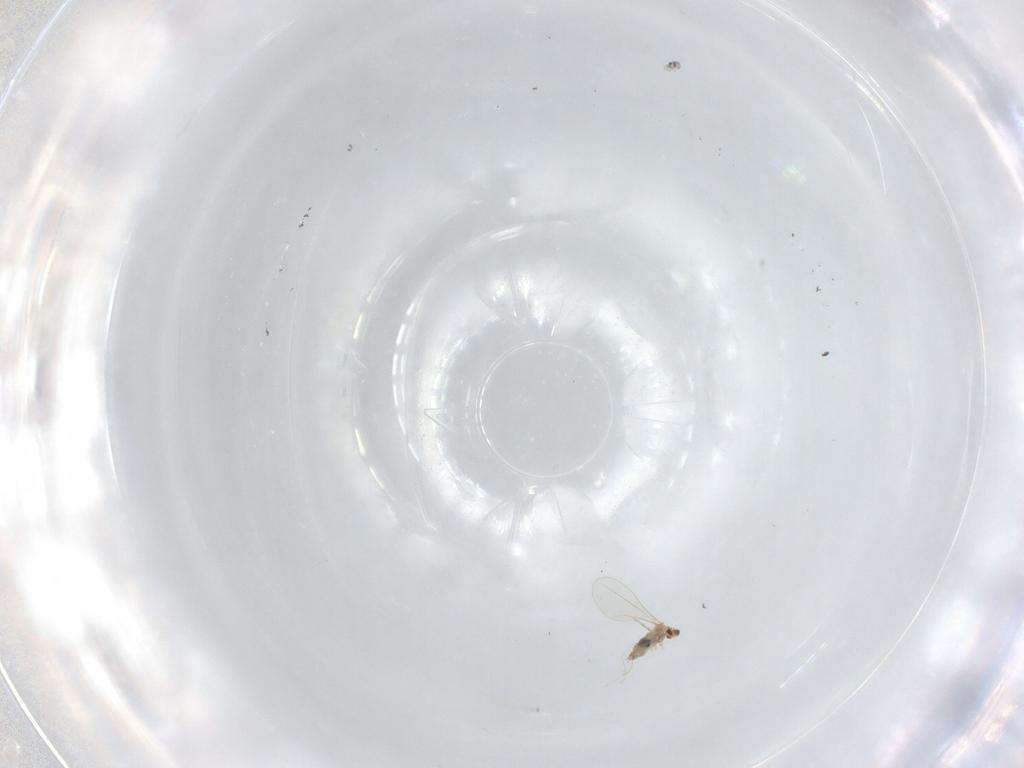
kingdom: Animalia
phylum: Arthropoda
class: Insecta
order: Diptera
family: Cecidomyiidae
